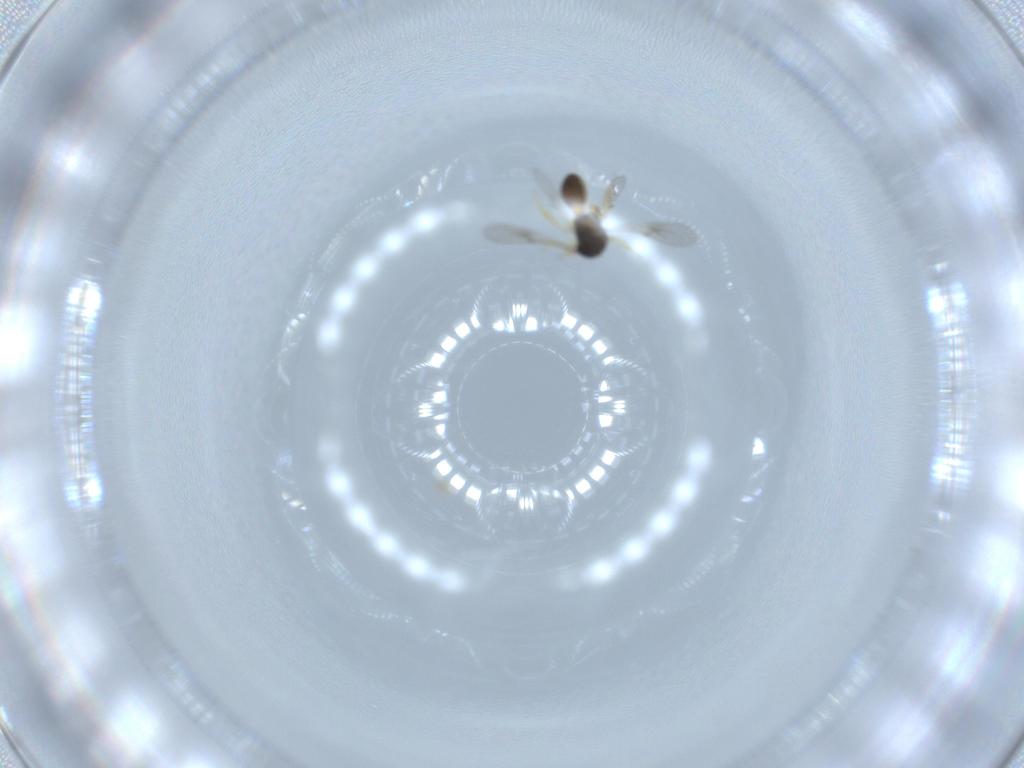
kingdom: Animalia
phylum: Arthropoda
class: Insecta
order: Hymenoptera
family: Scelionidae
